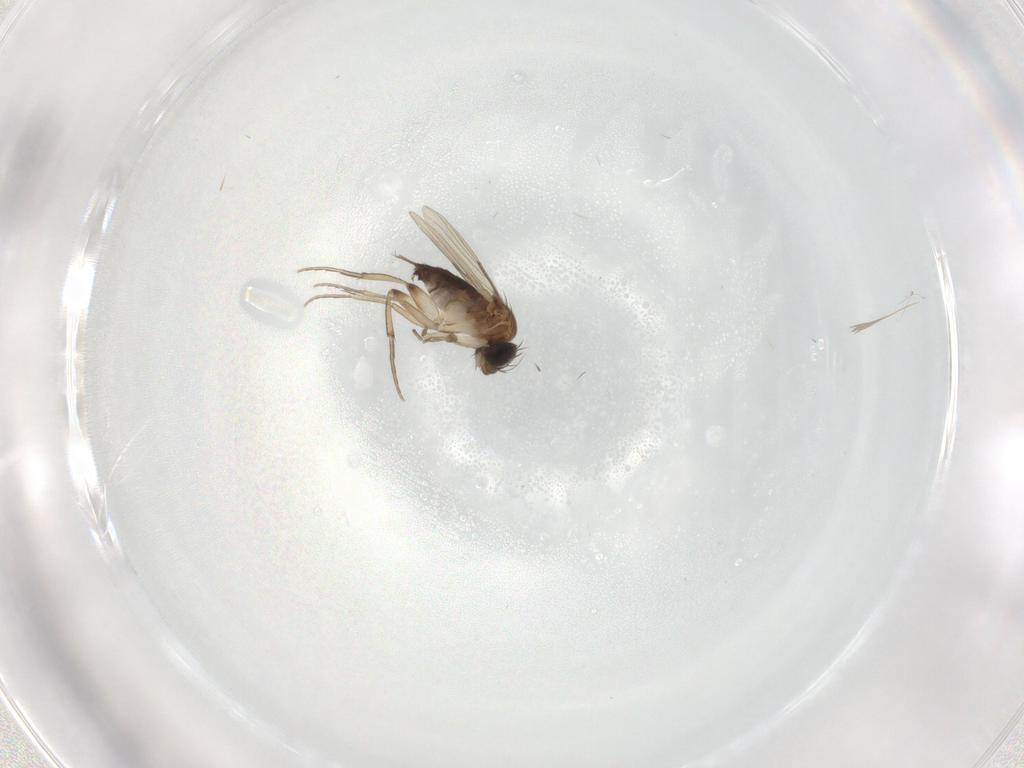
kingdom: Animalia
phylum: Arthropoda
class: Insecta
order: Diptera
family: Phoridae
